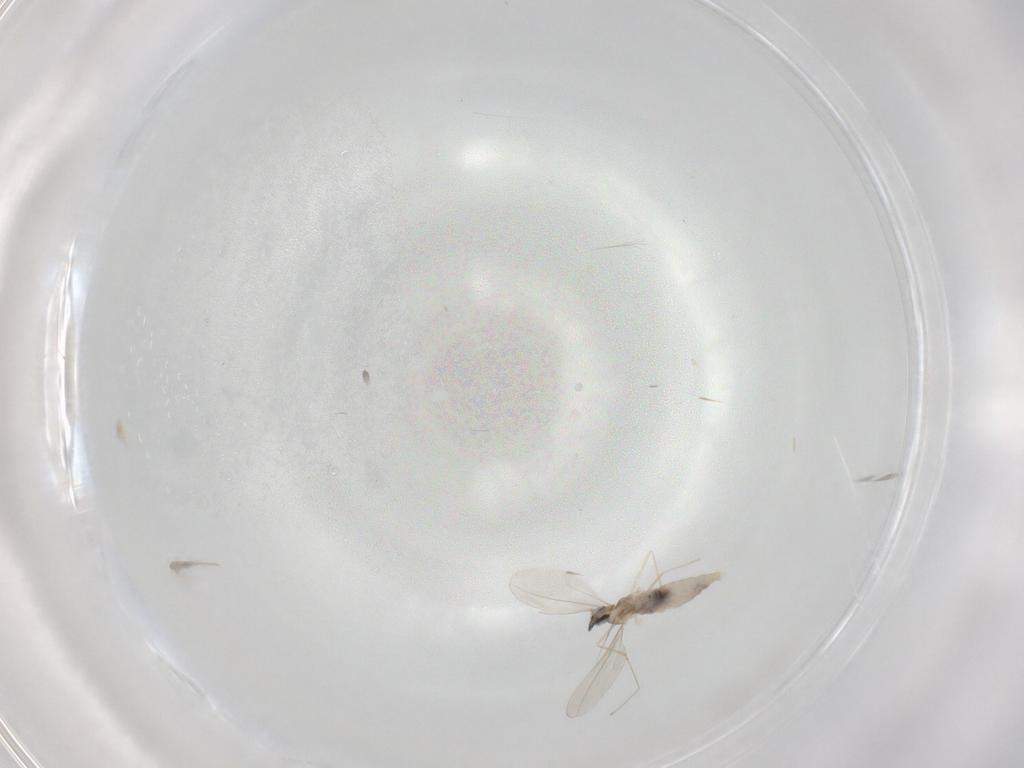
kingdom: Animalia
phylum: Arthropoda
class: Insecta
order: Diptera
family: Cecidomyiidae
